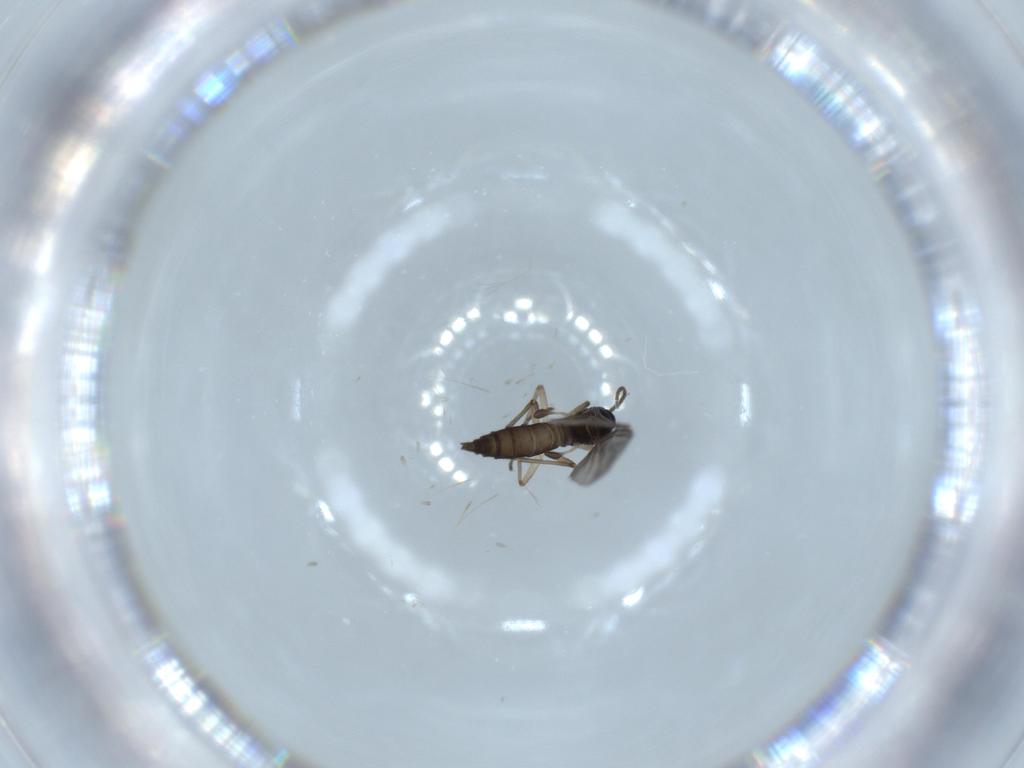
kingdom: Animalia
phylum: Arthropoda
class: Insecta
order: Diptera
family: Sciaridae
